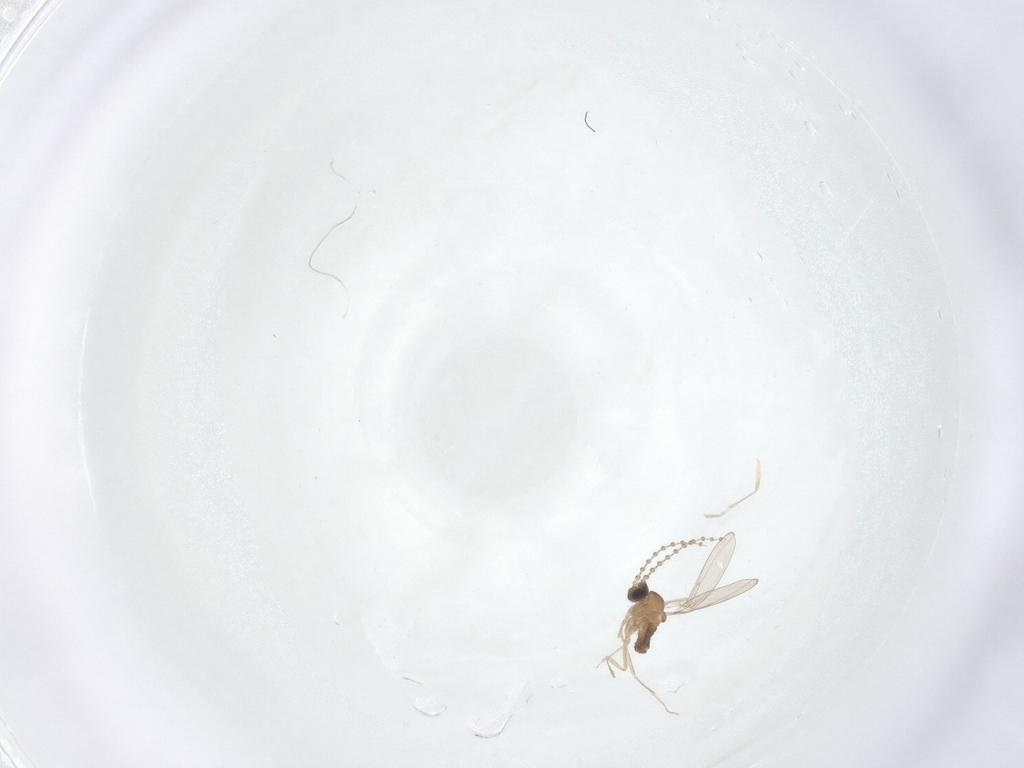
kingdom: Animalia
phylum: Arthropoda
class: Insecta
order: Diptera
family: Cecidomyiidae
